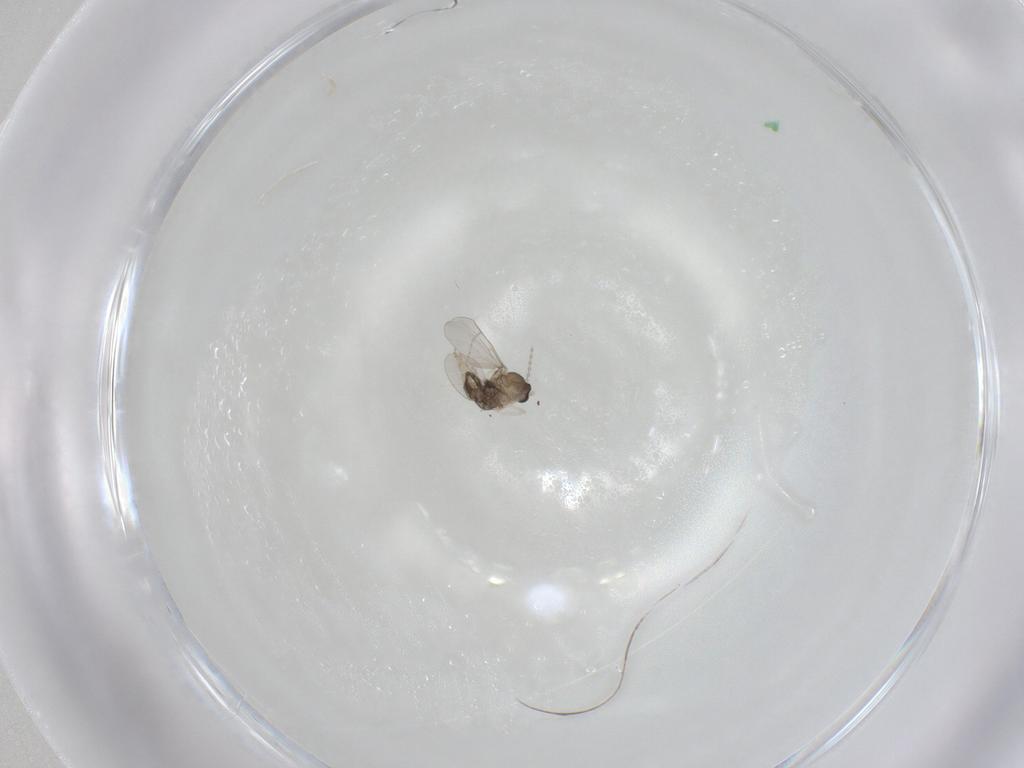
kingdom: Animalia
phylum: Arthropoda
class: Insecta
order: Diptera
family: Cecidomyiidae
